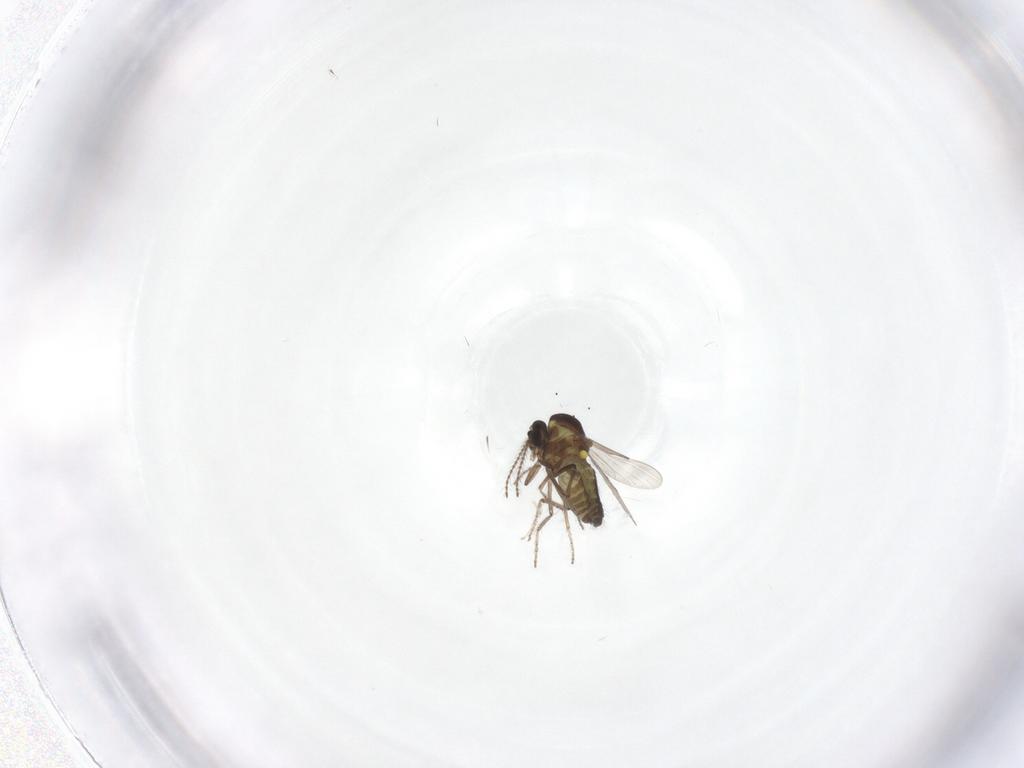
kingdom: Animalia
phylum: Arthropoda
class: Insecta
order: Diptera
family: Ceratopogonidae
